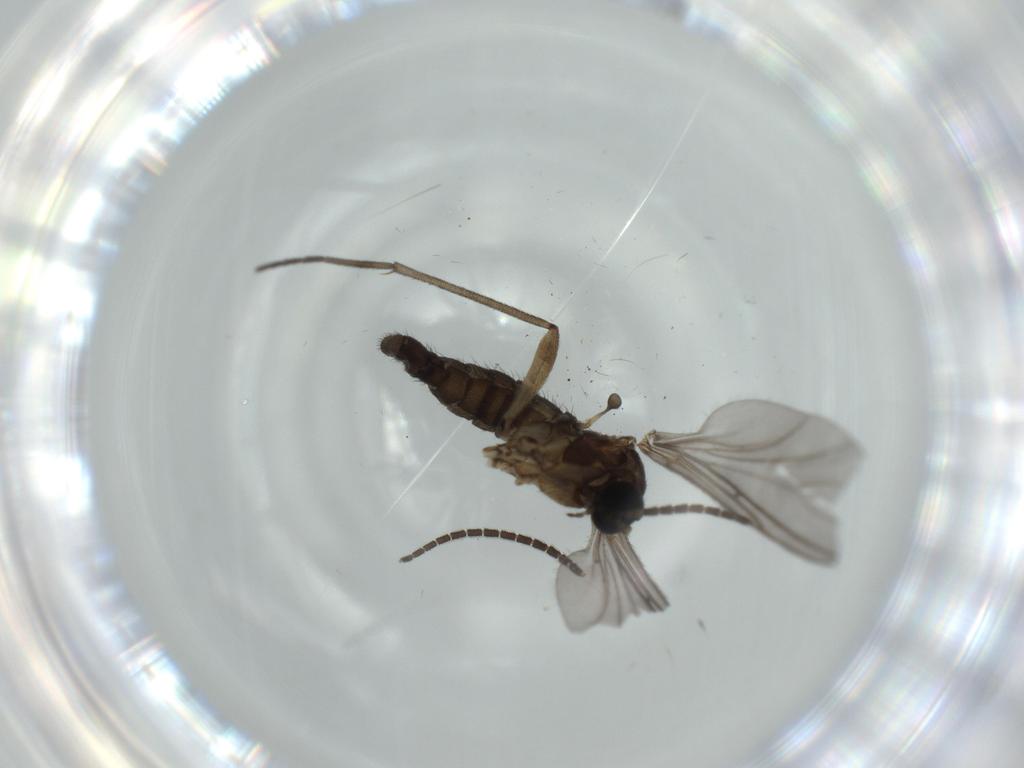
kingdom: Animalia
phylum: Arthropoda
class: Insecta
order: Diptera
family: Sciaridae
